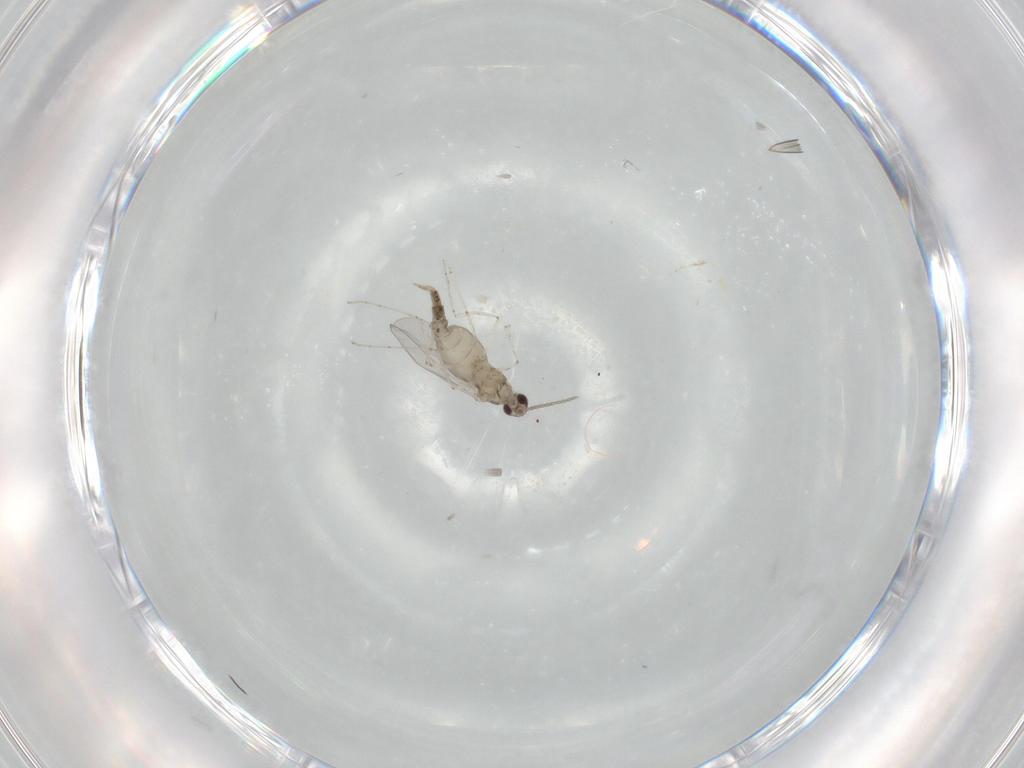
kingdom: Animalia
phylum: Arthropoda
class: Insecta
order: Diptera
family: Cecidomyiidae
